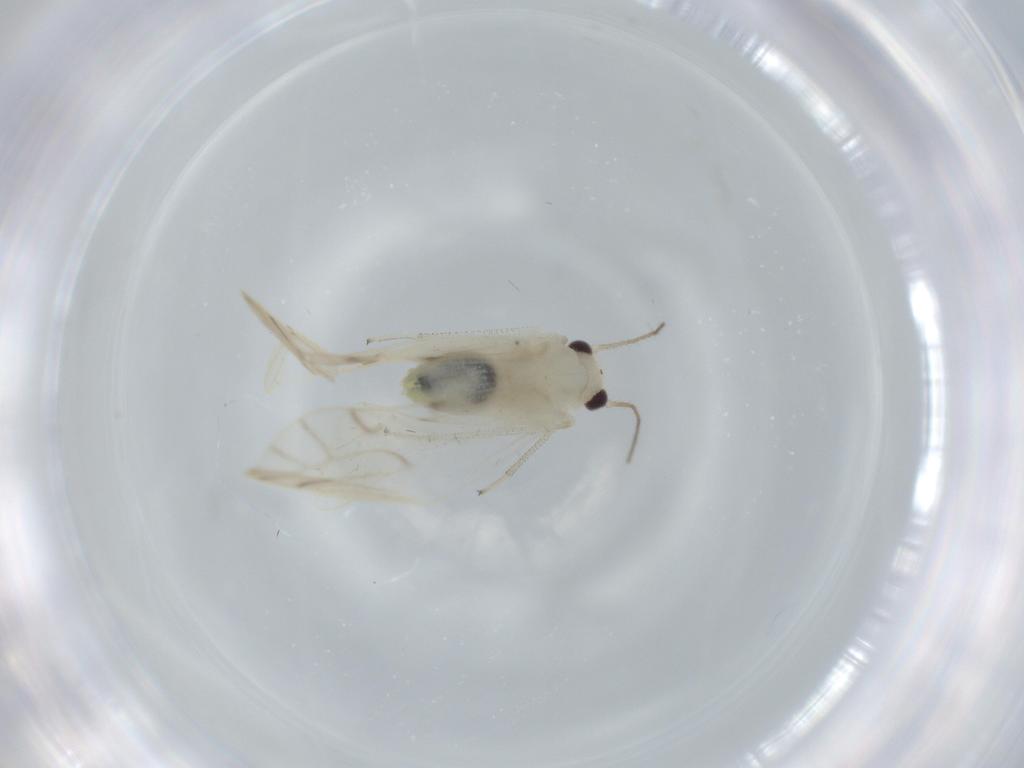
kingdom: Animalia
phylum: Arthropoda
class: Insecta
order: Psocodea
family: Caeciliusidae
